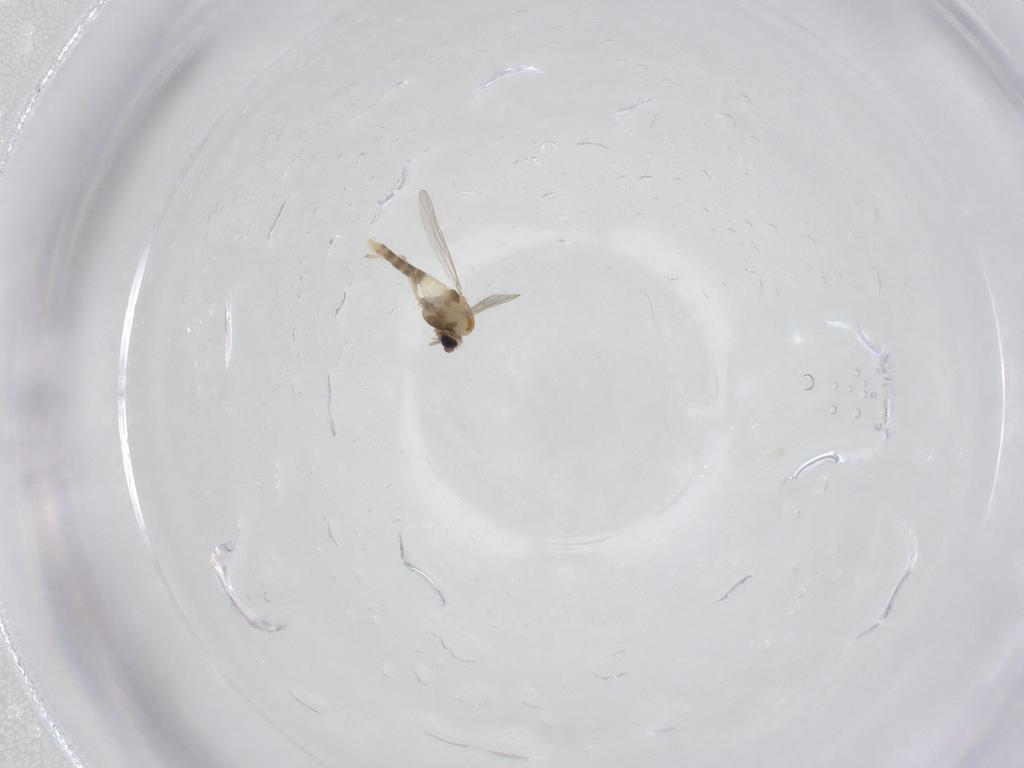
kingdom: Animalia
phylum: Arthropoda
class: Insecta
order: Diptera
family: Chironomidae
